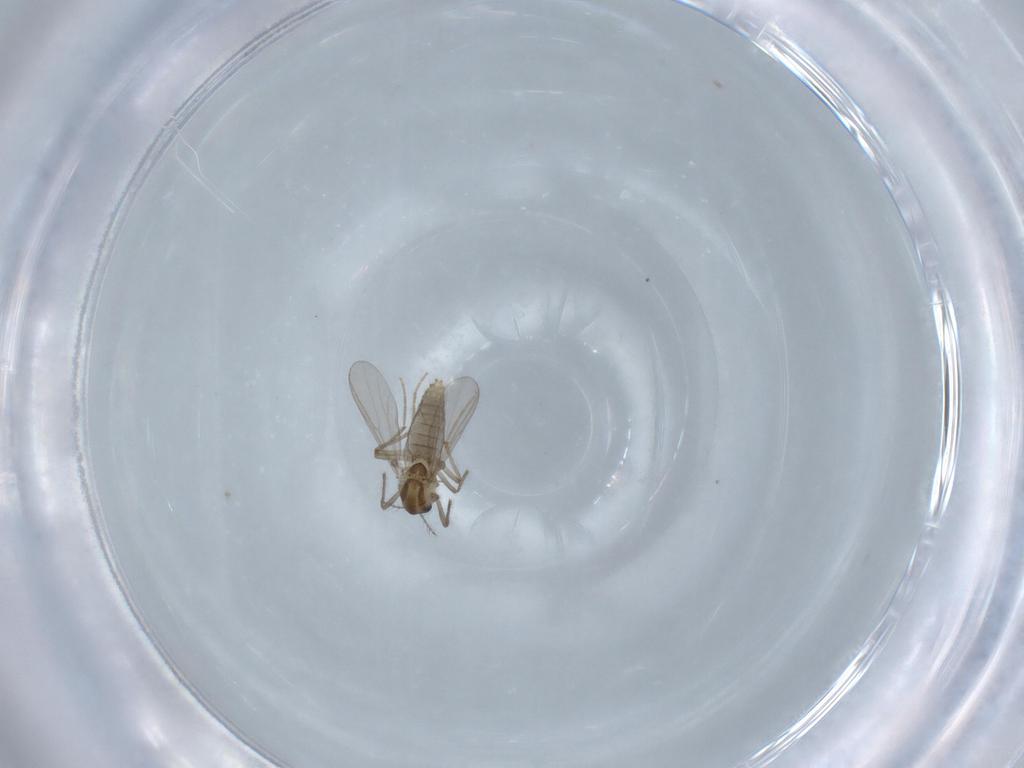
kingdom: Animalia
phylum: Arthropoda
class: Insecta
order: Diptera
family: Chironomidae
